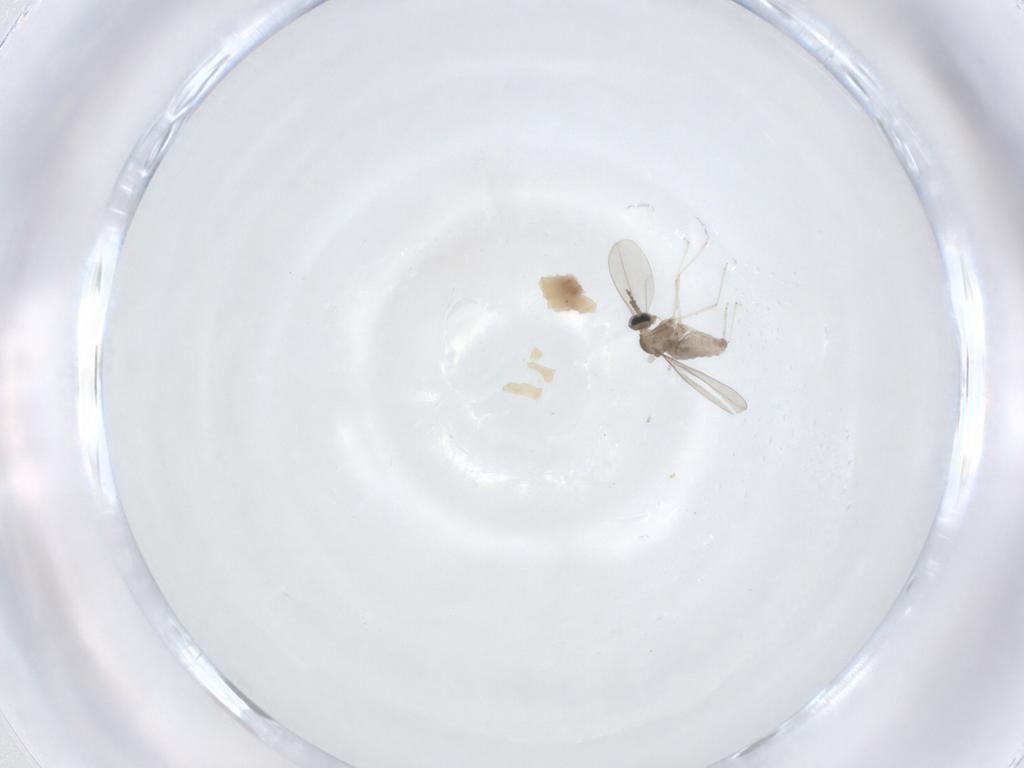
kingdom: Animalia
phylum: Arthropoda
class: Insecta
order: Diptera
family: Cecidomyiidae
